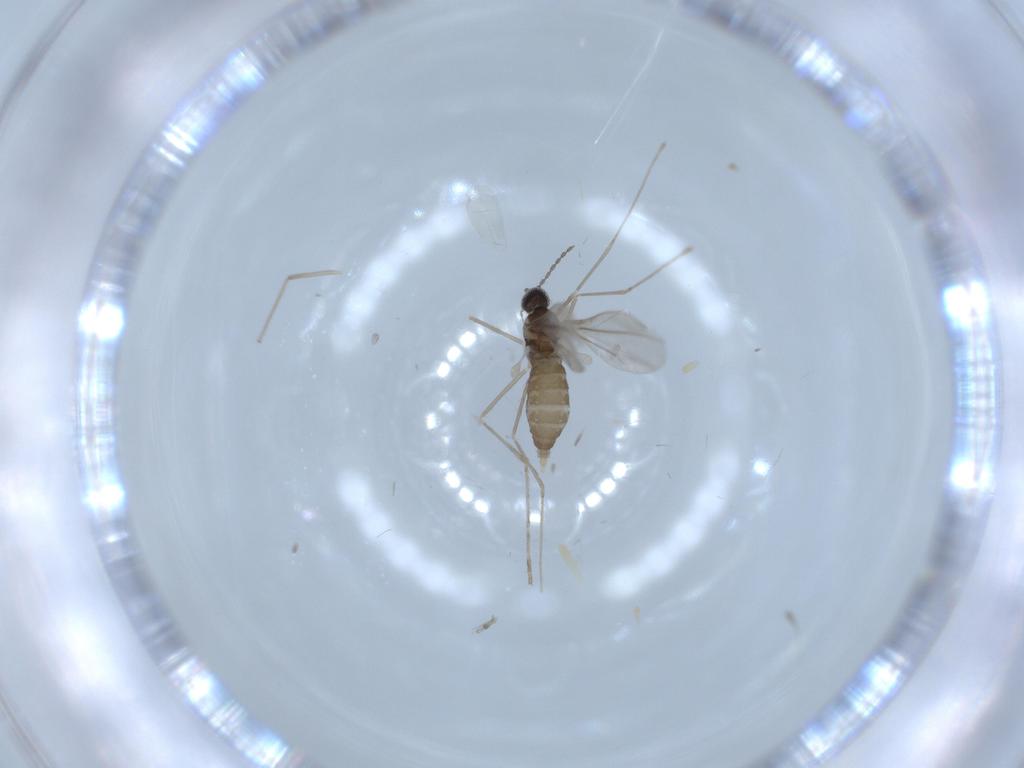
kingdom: Animalia
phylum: Arthropoda
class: Insecta
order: Diptera
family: Cecidomyiidae
